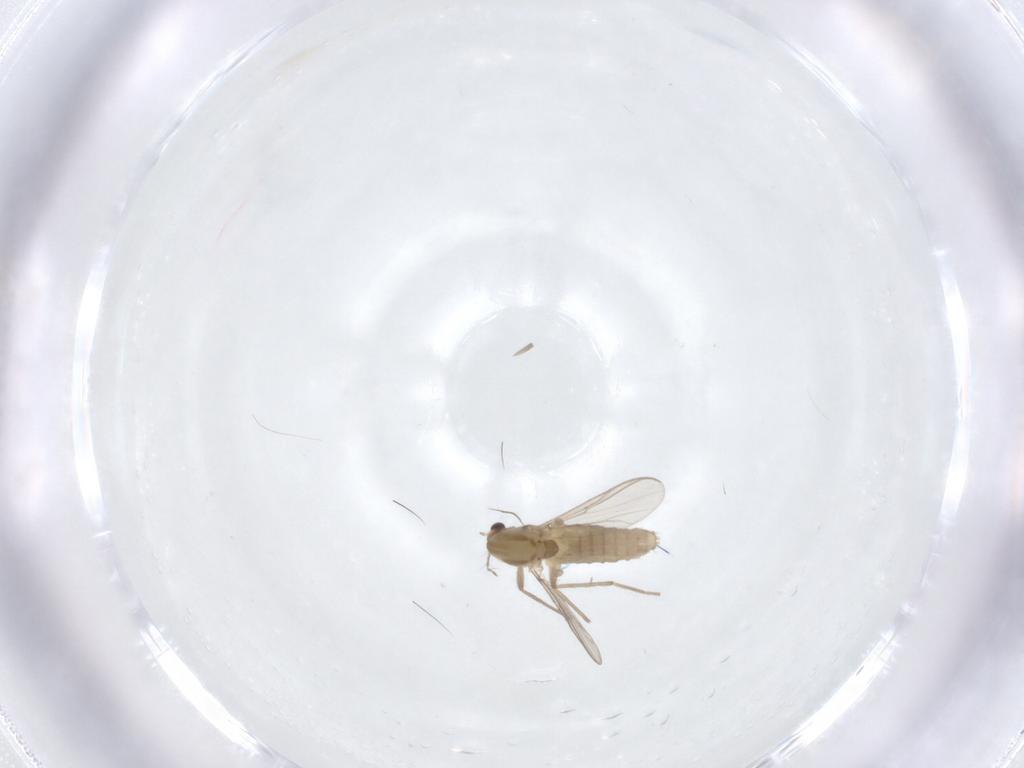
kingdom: Animalia
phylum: Arthropoda
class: Insecta
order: Diptera
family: Chironomidae
